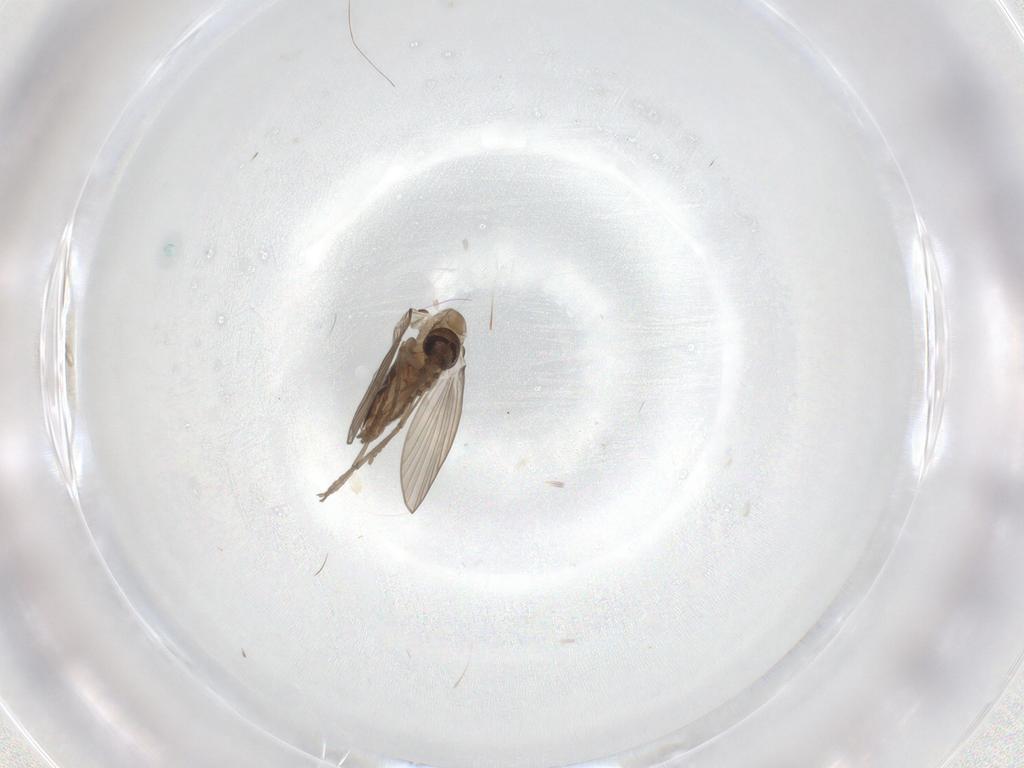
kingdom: Animalia
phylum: Arthropoda
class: Insecta
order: Diptera
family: Psychodidae
